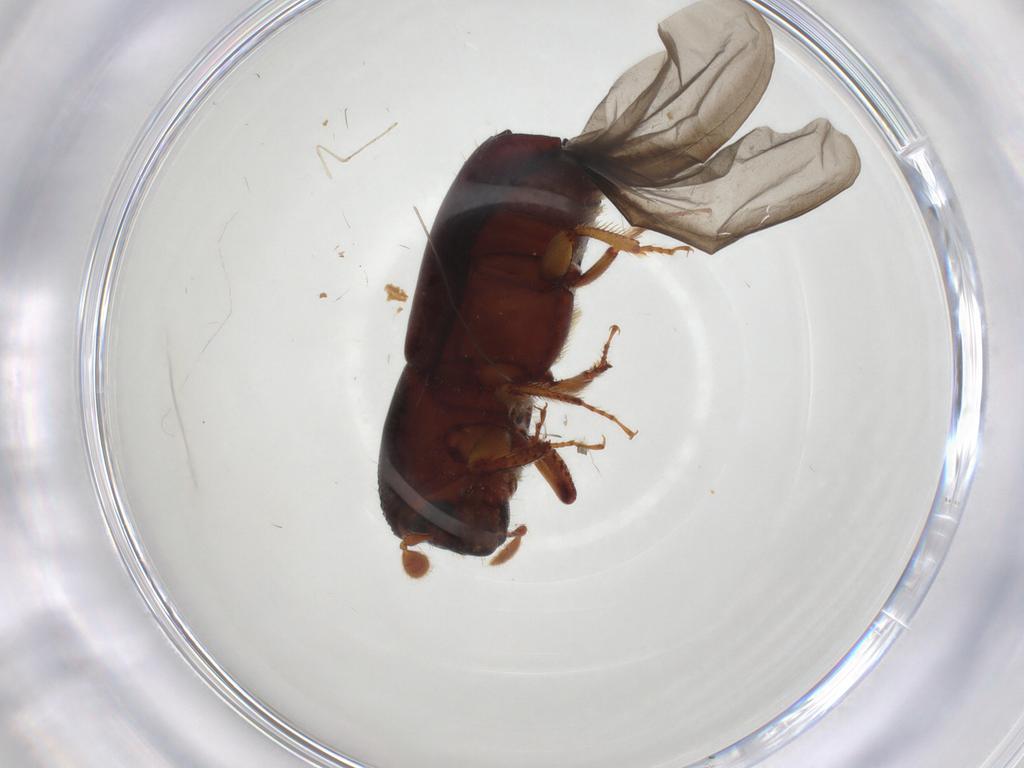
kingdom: Animalia
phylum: Arthropoda
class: Insecta
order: Coleoptera
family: Curculionidae
